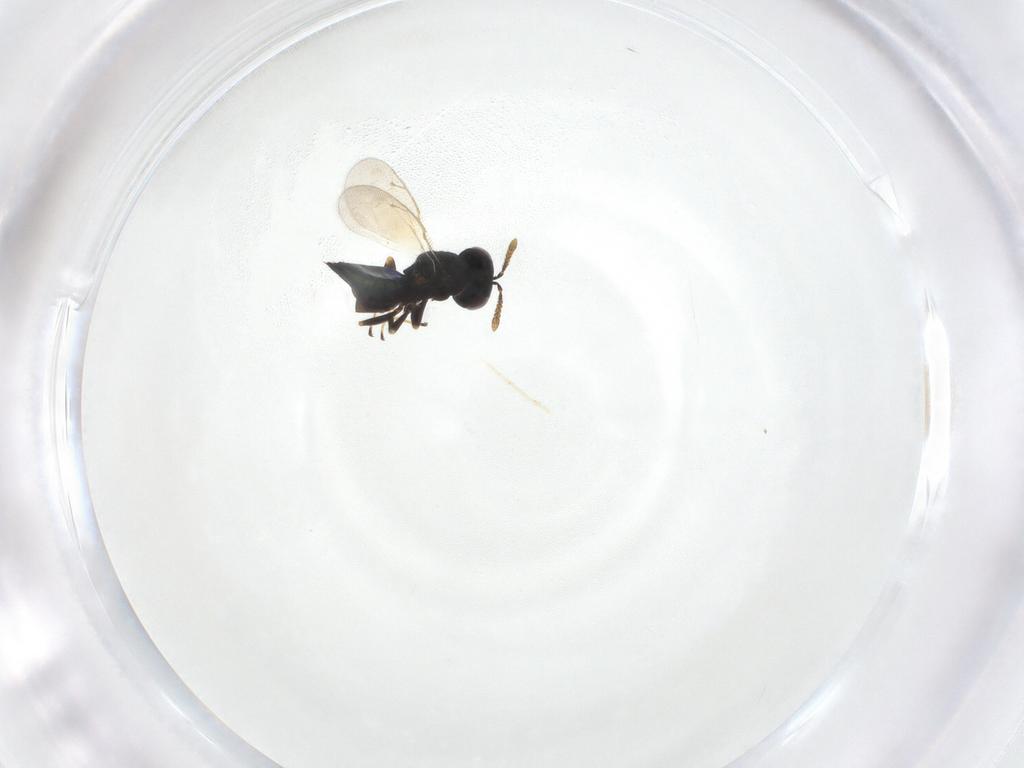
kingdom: Animalia
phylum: Arthropoda
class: Insecta
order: Hymenoptera
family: Pteromalidae
